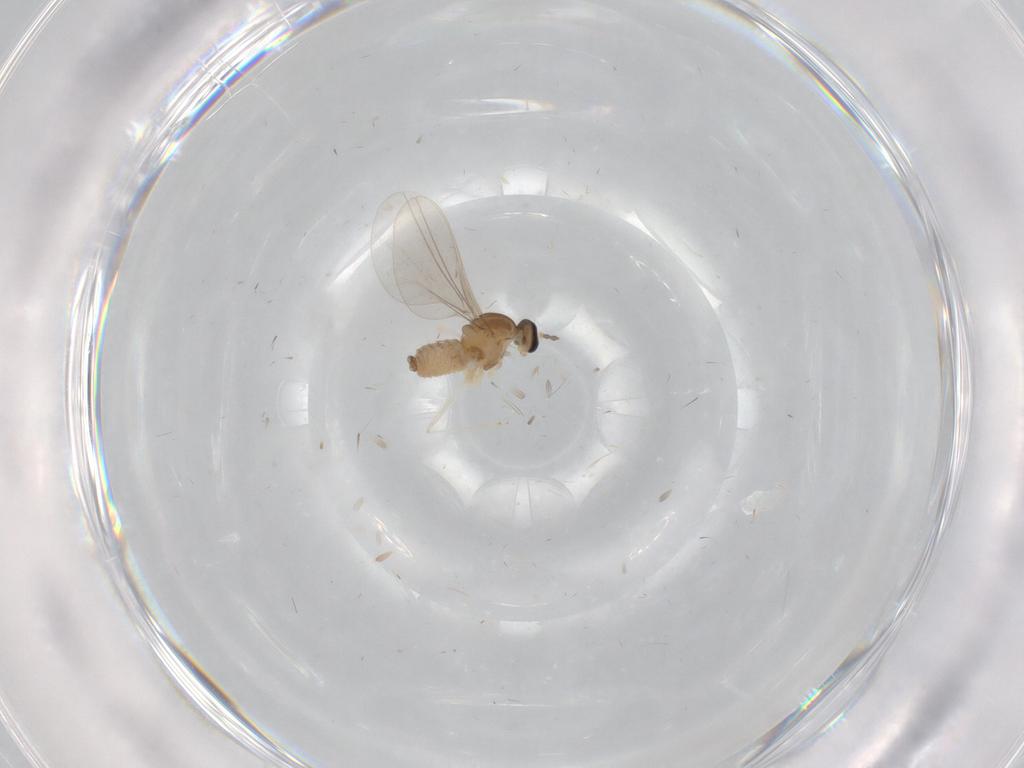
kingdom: Animalia
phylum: Arthropoda
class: Insecta
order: Diptera
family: Cecidomyiidae
